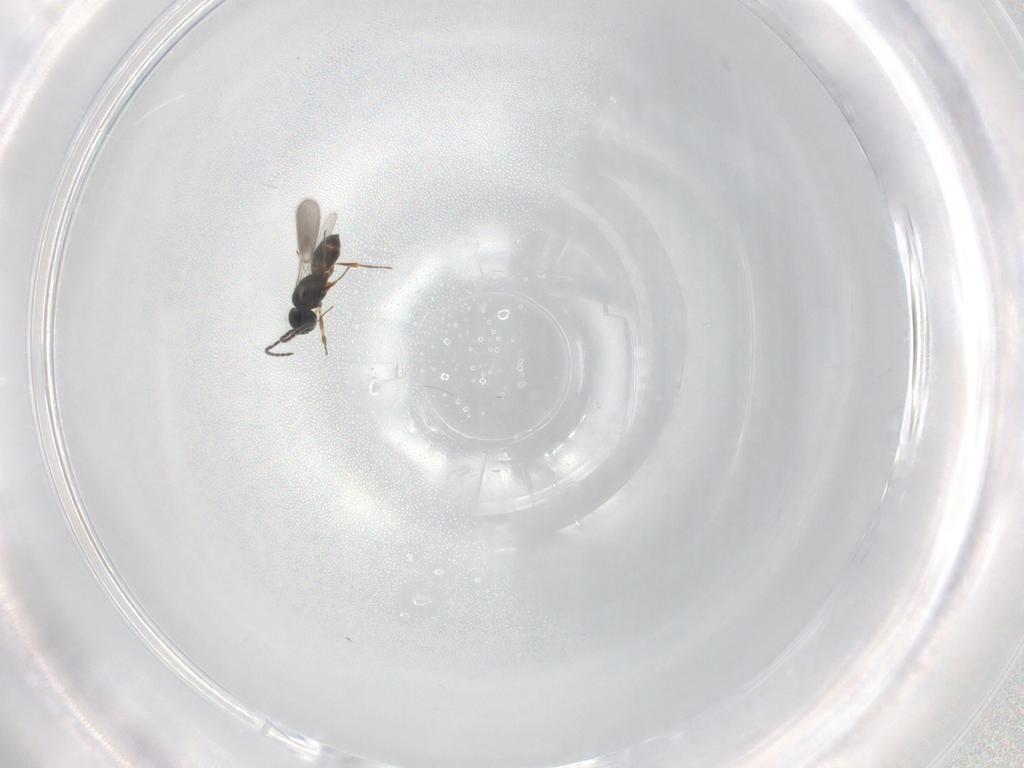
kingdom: Animalia
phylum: Arthropoda
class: Insecta
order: Hymenoptera
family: Scelionidae
